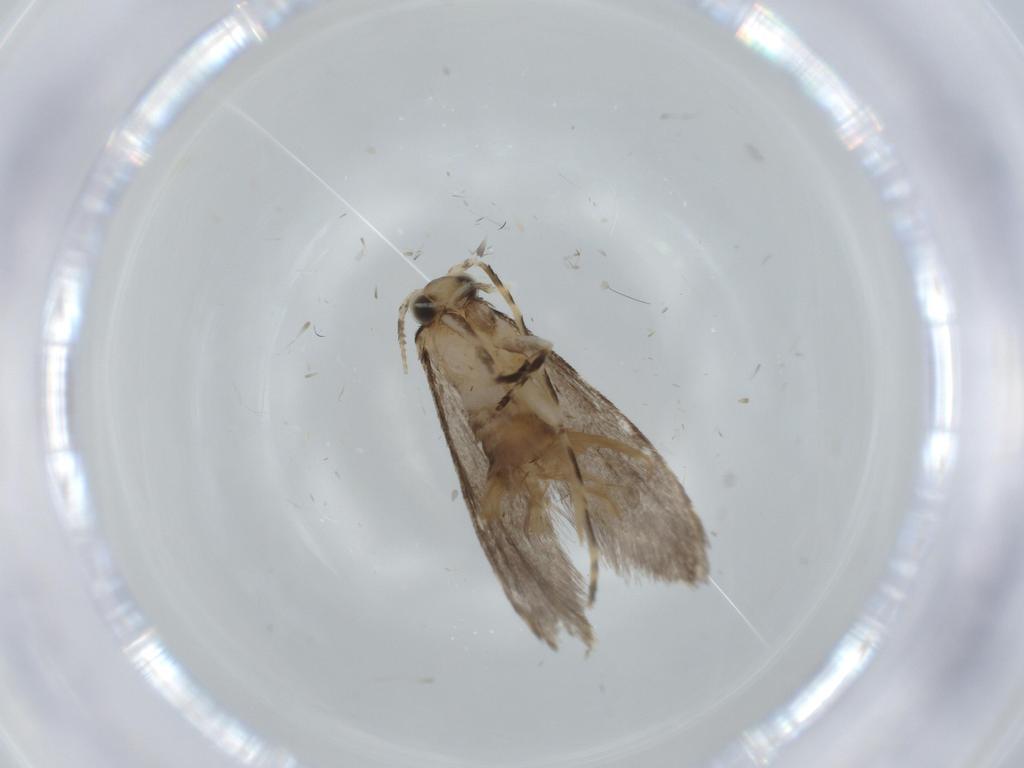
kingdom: Animalia
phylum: Arthropoda
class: Insecta
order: Lepidoptera
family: Tineidae
